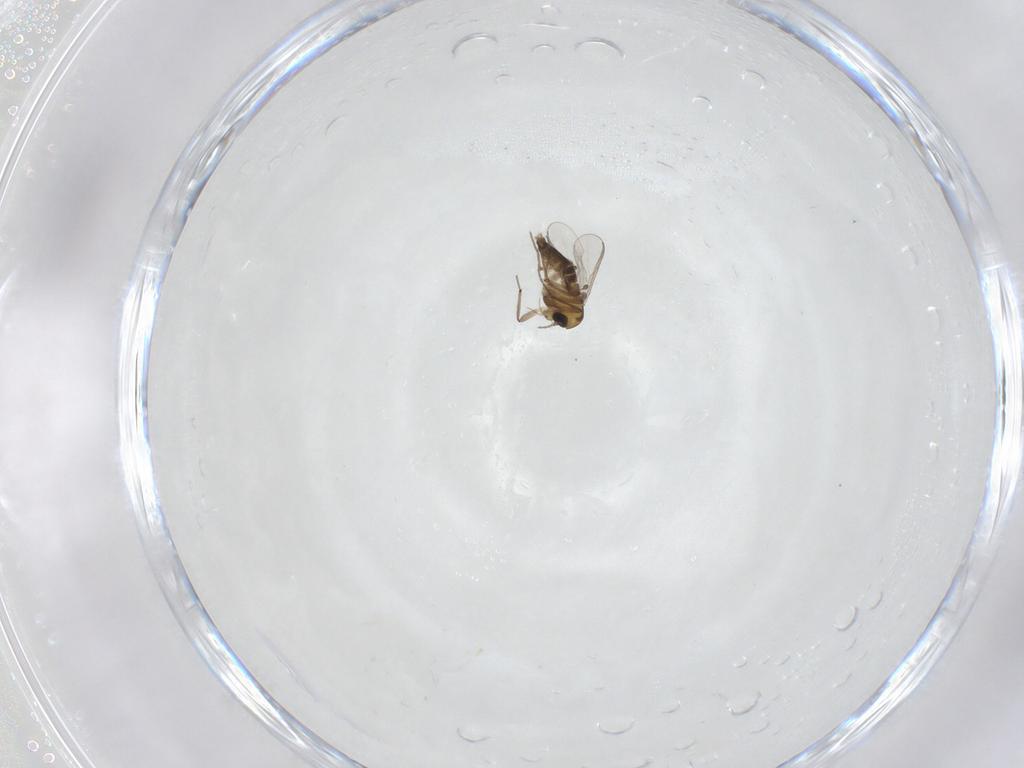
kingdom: Animalia
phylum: Arthropoda
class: Insecta
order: Diptera
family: Chironomidae
